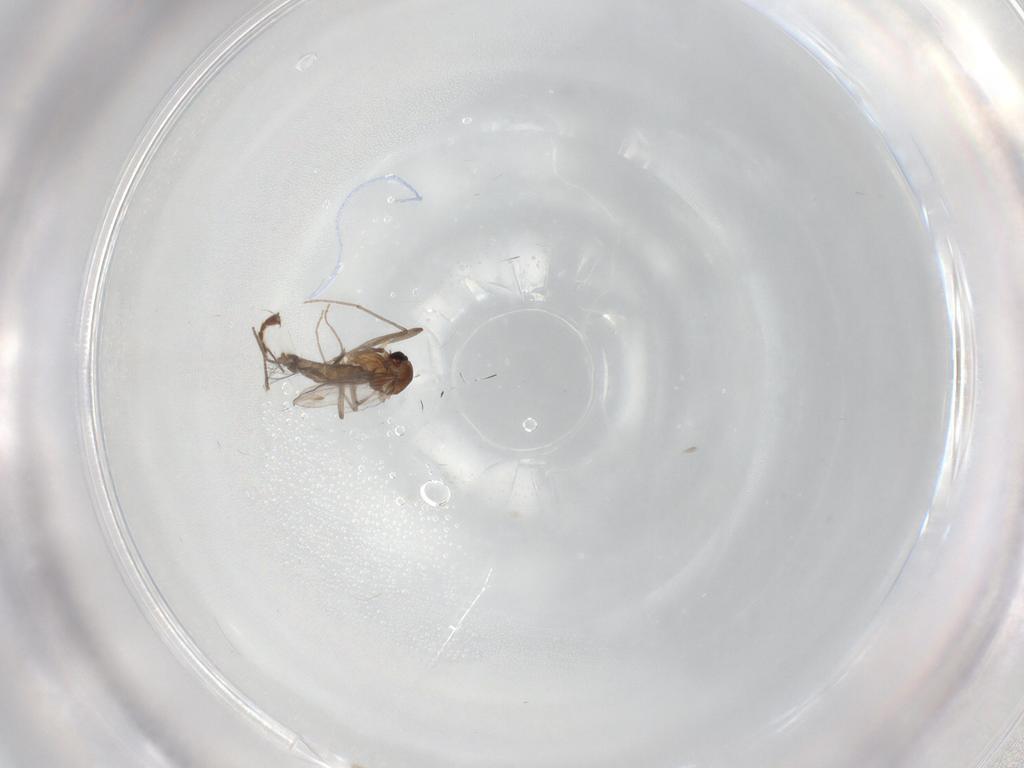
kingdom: Animalia
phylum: Arthropoda
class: Insecta
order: Diptera
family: Chironomidae
